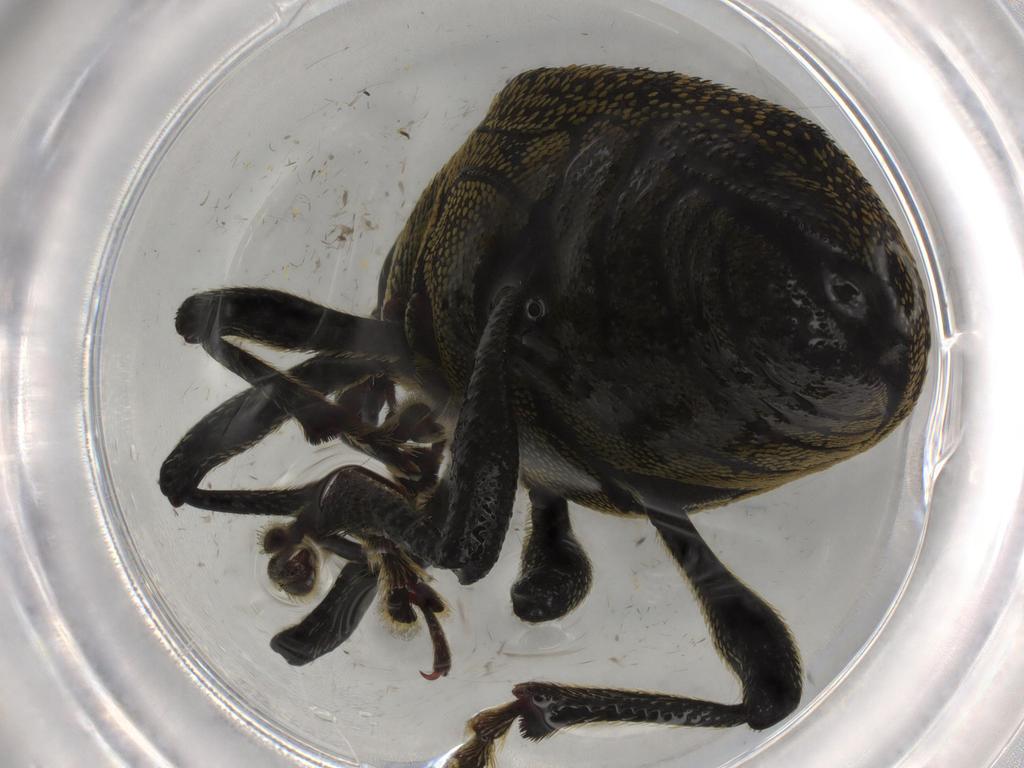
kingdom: Animalia
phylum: Arthropoda
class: Insecta
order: Coleoptera
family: Curculionidae
